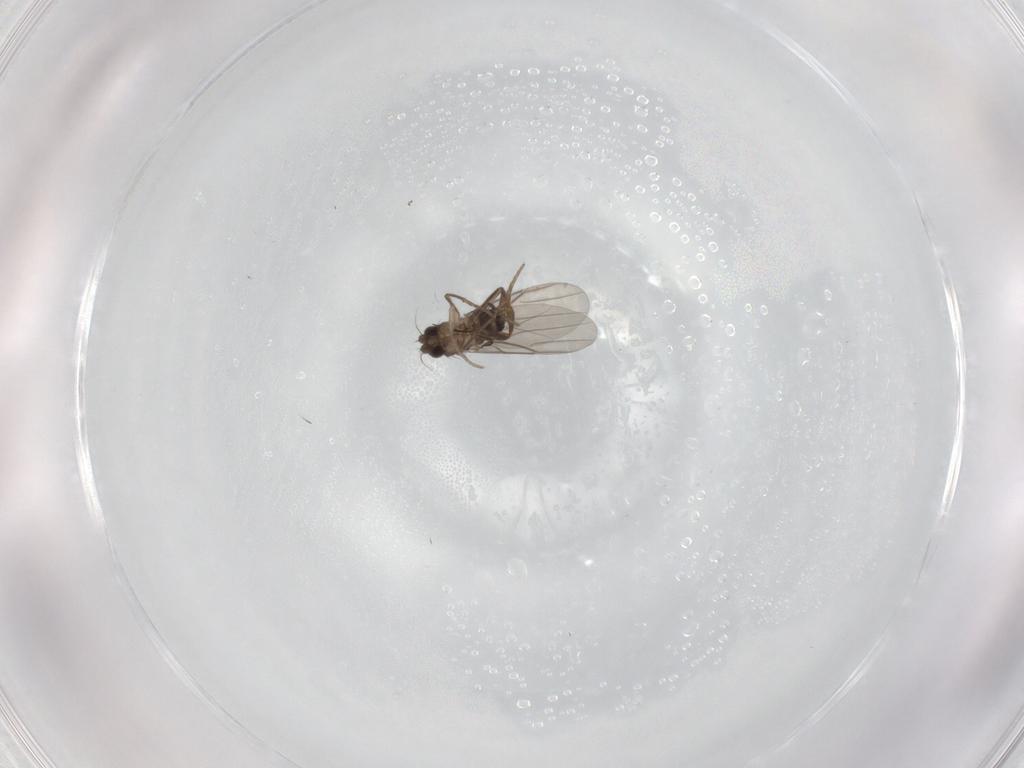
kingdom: Animalia
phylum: Arthropoda
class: Insecta
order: Diptera
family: Phoridae
